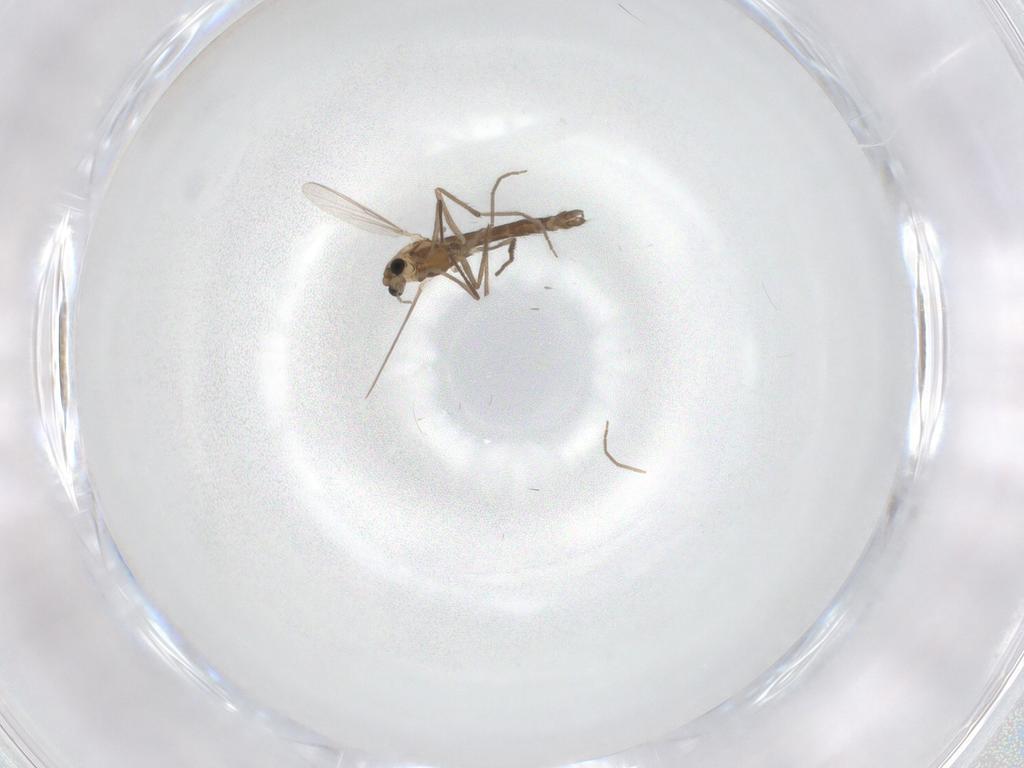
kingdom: Animalia
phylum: Arthropoda
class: Insecta
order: Diptera
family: Chironomidae
